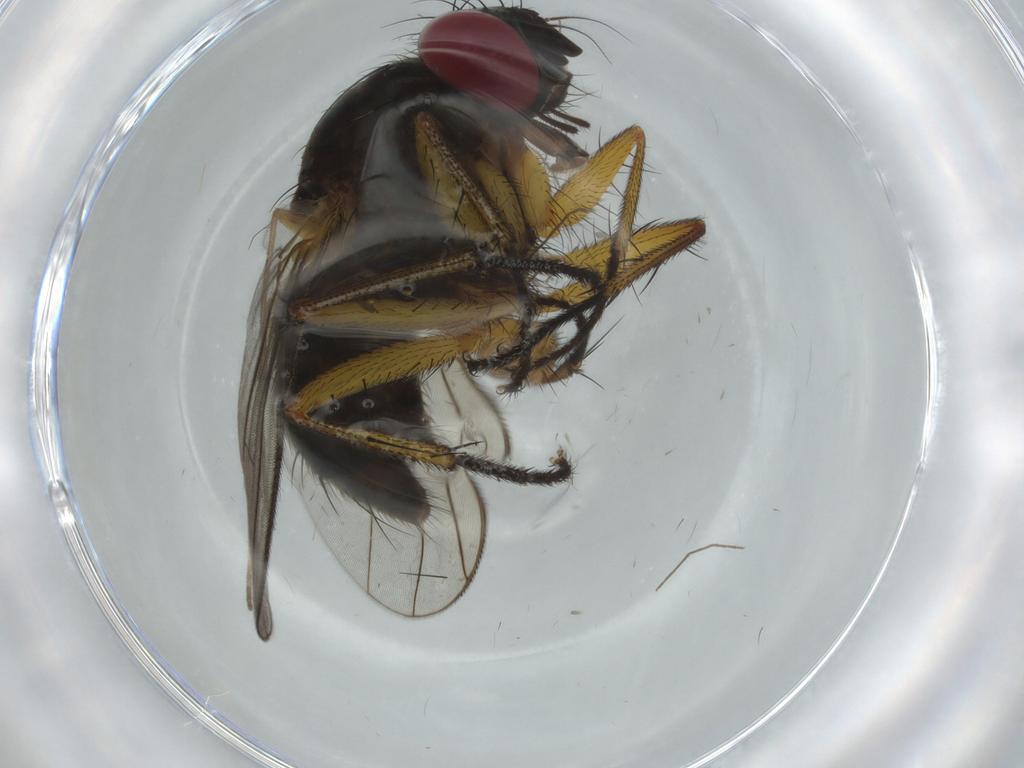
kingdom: Animalia
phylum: Arthropoda
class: Insecta
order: Diptera
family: Muscidae
